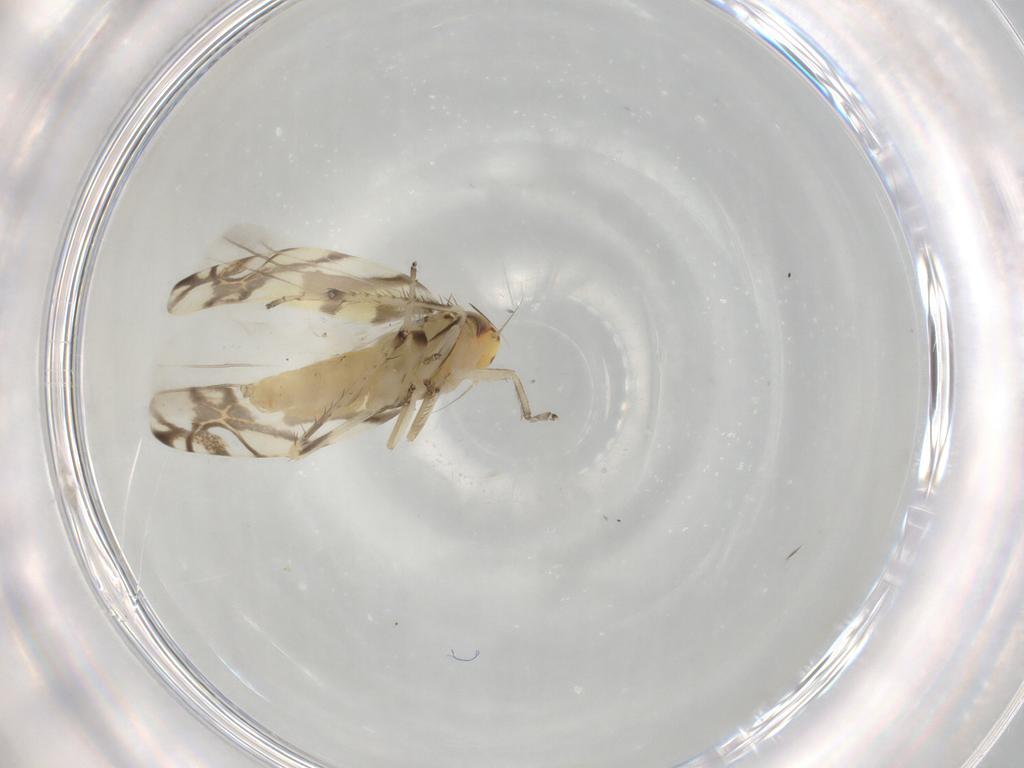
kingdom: Animalia
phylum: Arthropoda
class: Insecta
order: Hemiptera
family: Cicadellidae
